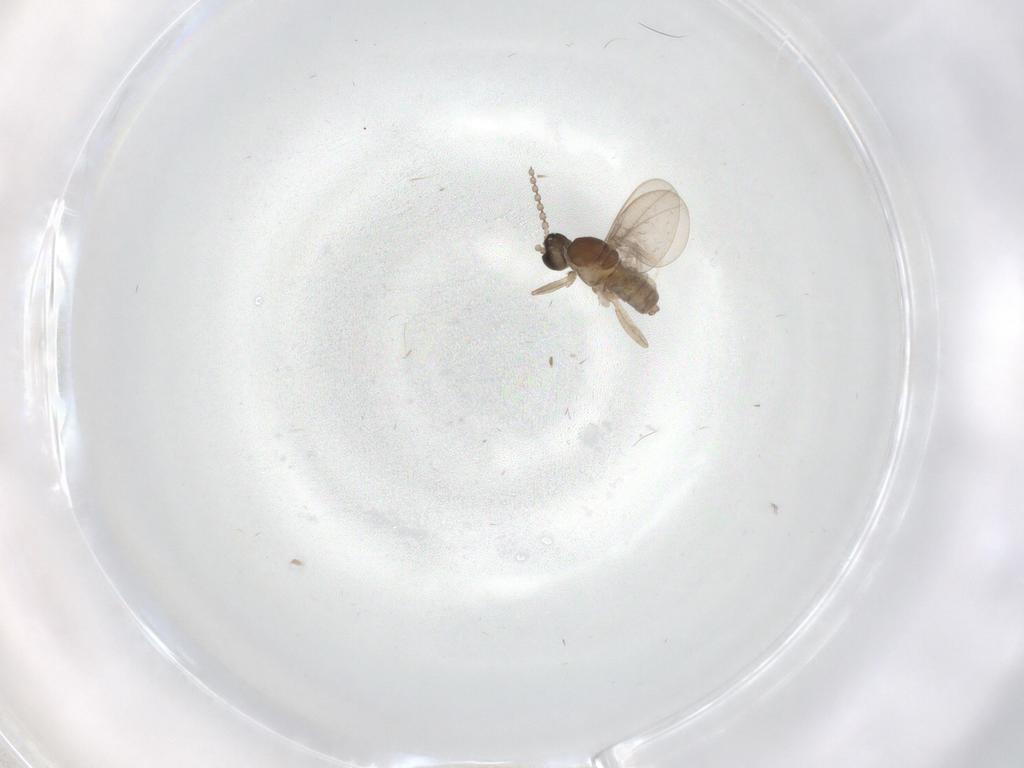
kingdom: Animalia
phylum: Arthropoda
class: Insecta
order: Diptera
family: Cecidomyiidae
